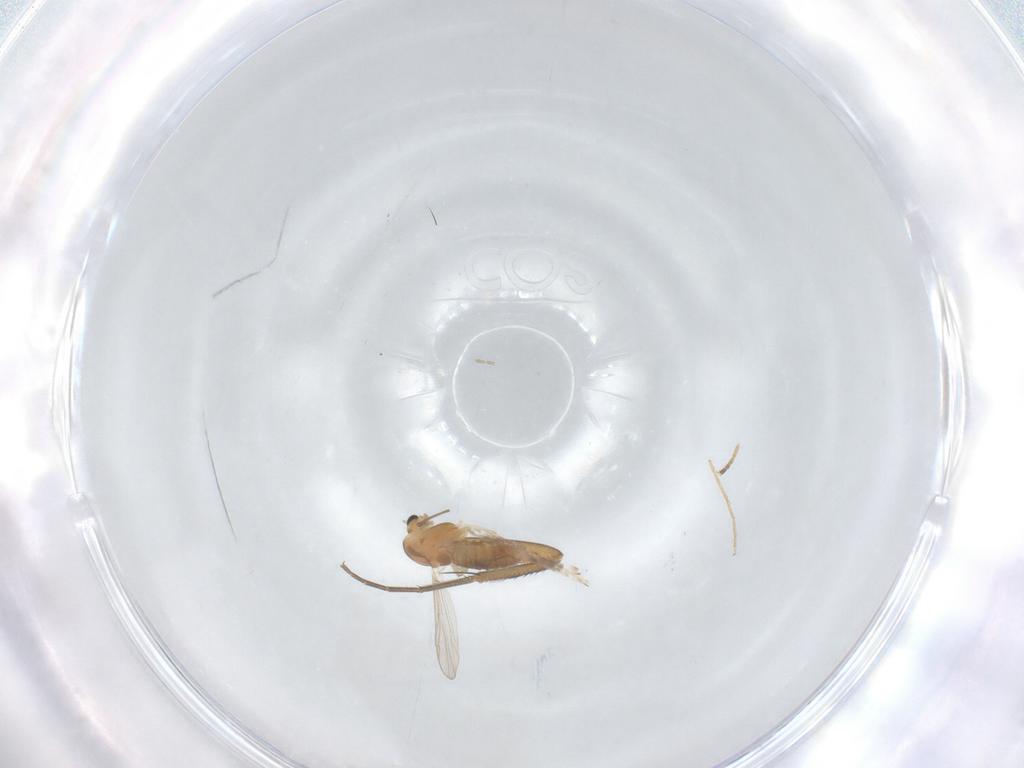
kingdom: Animalia
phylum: Arthropoda
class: Insecta
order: Diptera
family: Chironomidae
